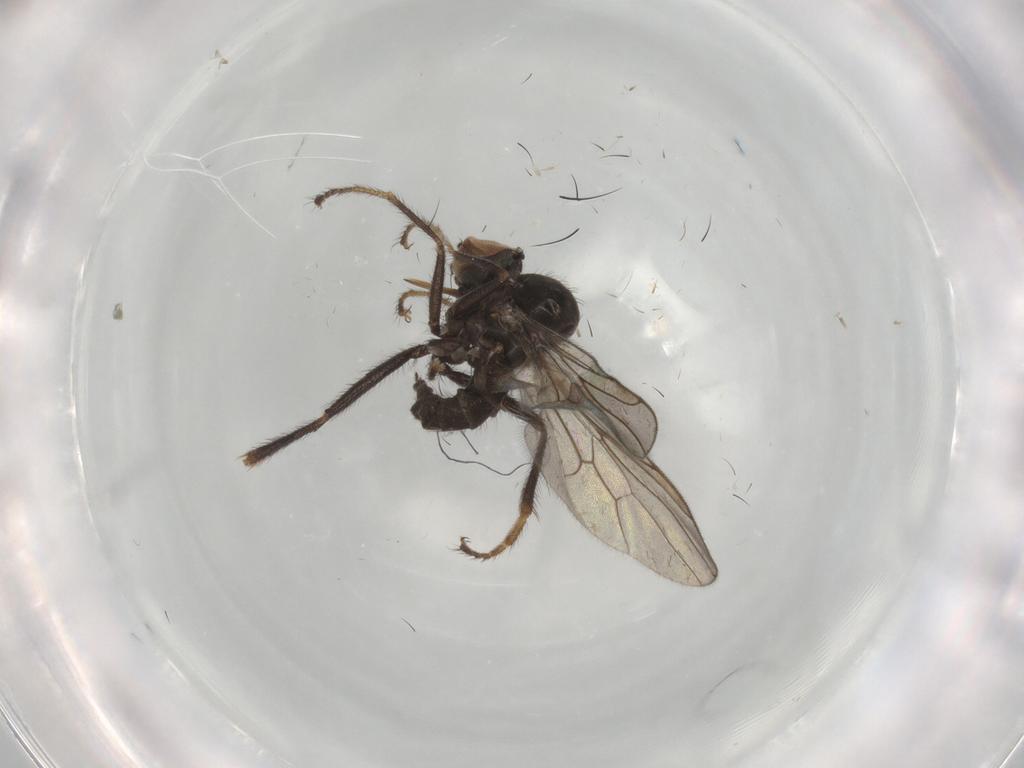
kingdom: Animalia
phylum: Arthropoda
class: Insecta
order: Diptera
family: Hybotidae
